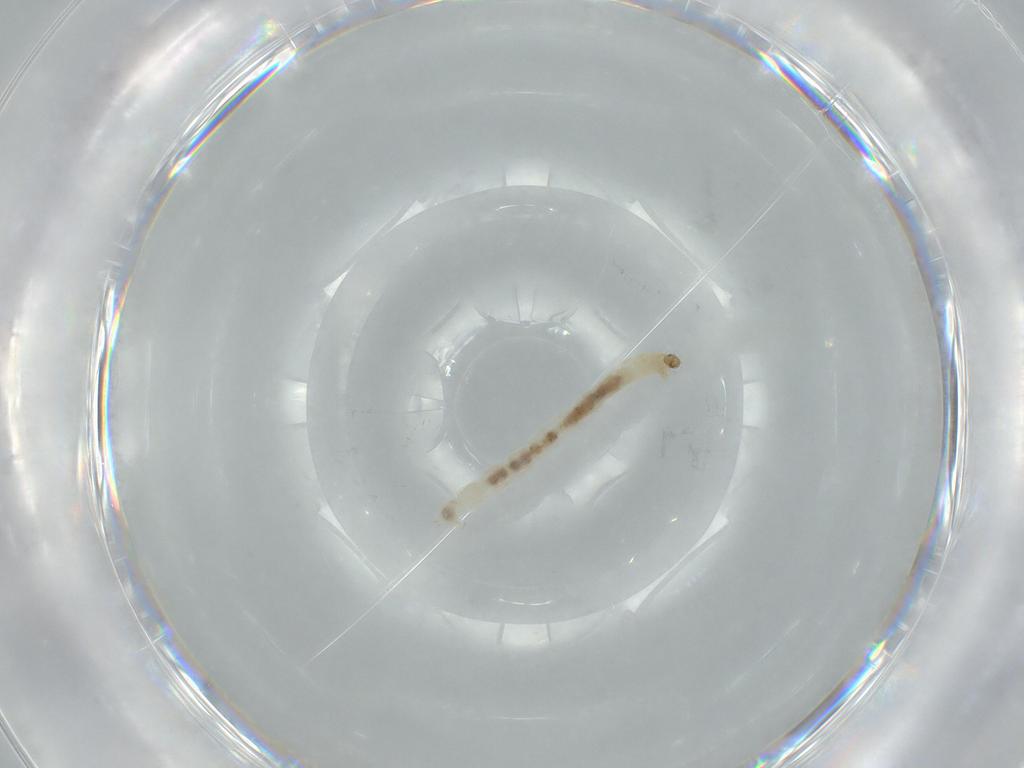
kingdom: Animalia
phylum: Arthropoda
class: Insecta
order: Diptera
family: Chironomidae
